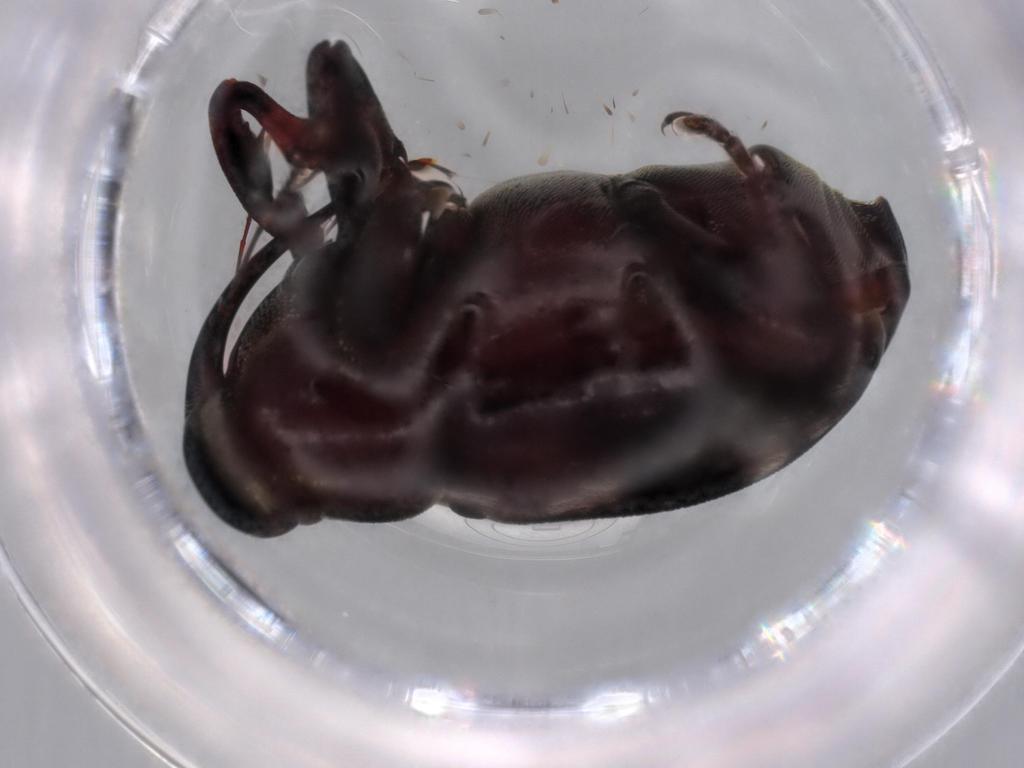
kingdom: Animalia
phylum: Arthropoda
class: Insecta
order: Coleoptera
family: Curculionidae
